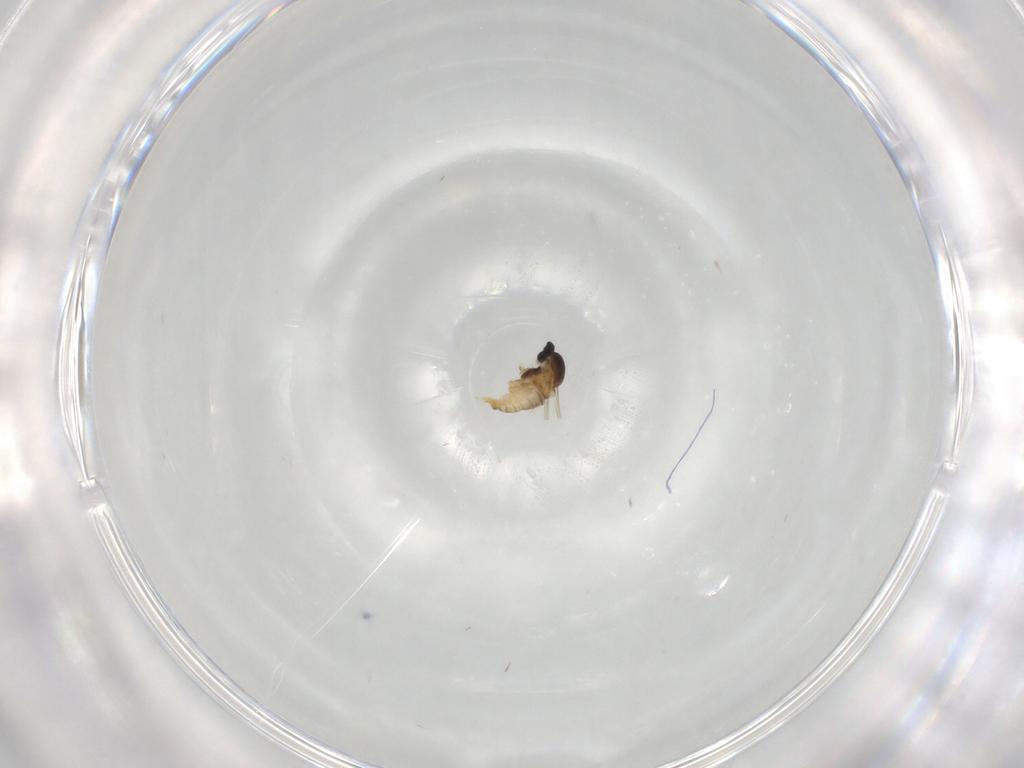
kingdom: Animalia
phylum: Arthropoda
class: Insecta
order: Diptera
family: Cecidomyiidae
